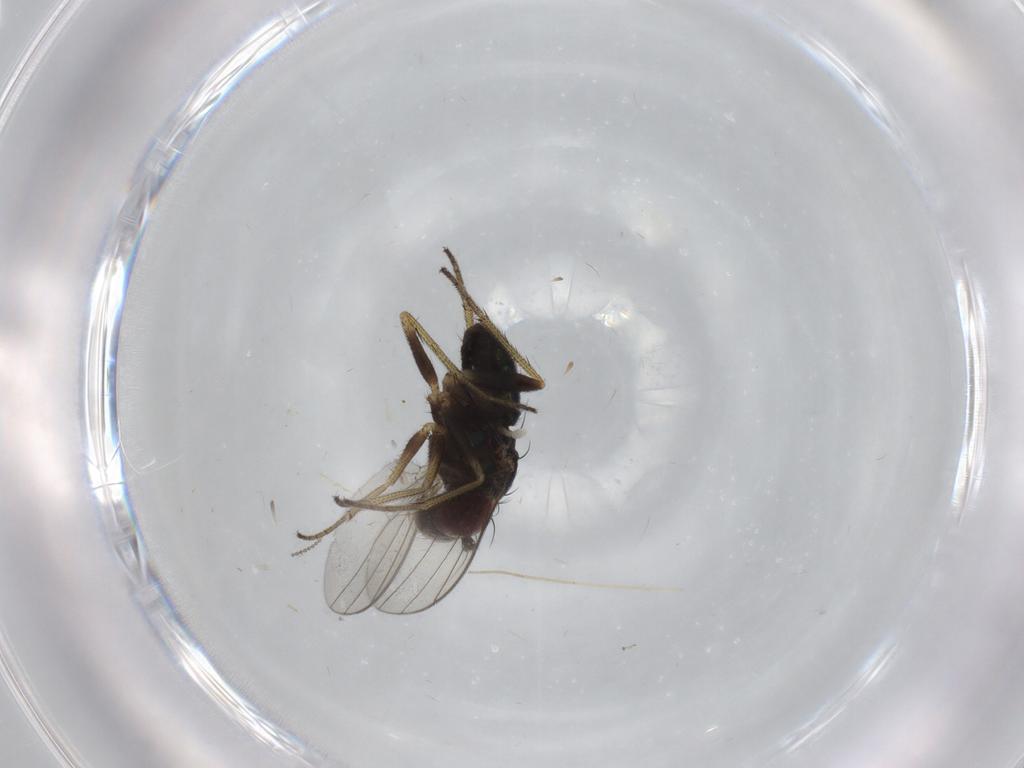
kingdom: Animalia
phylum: Arthropoda
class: Insecta
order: Diptera
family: Dolichopodidae
